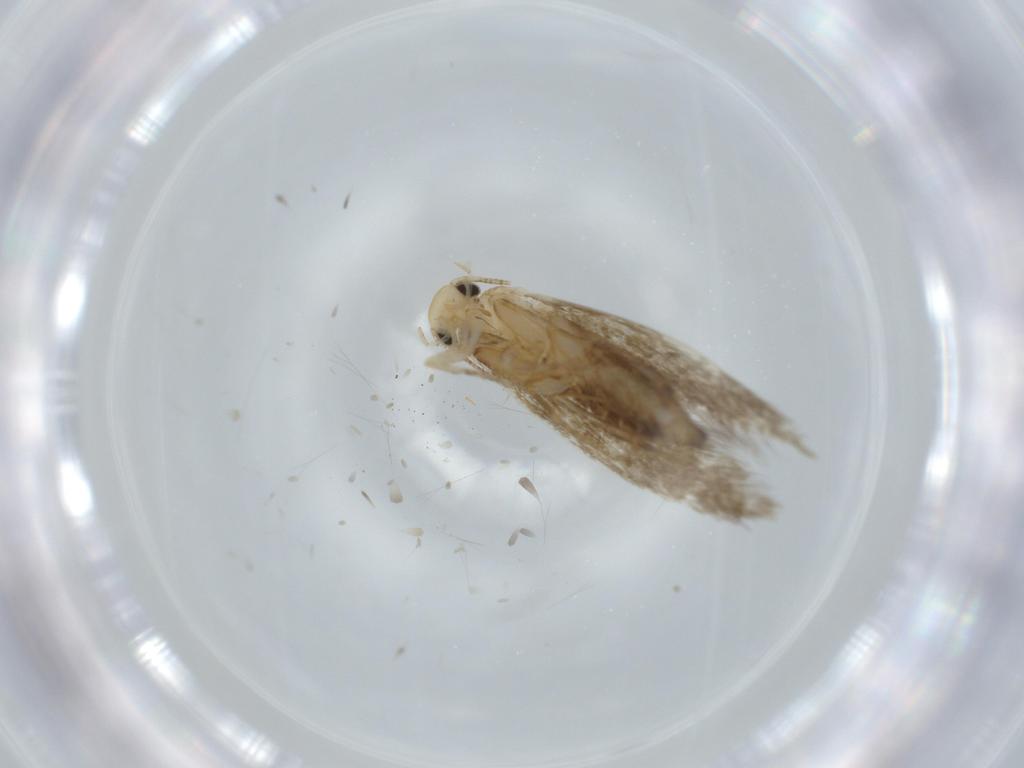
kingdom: Animalia
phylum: Arthropoda
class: Insecta
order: Lepidoptera
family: Tineidae
